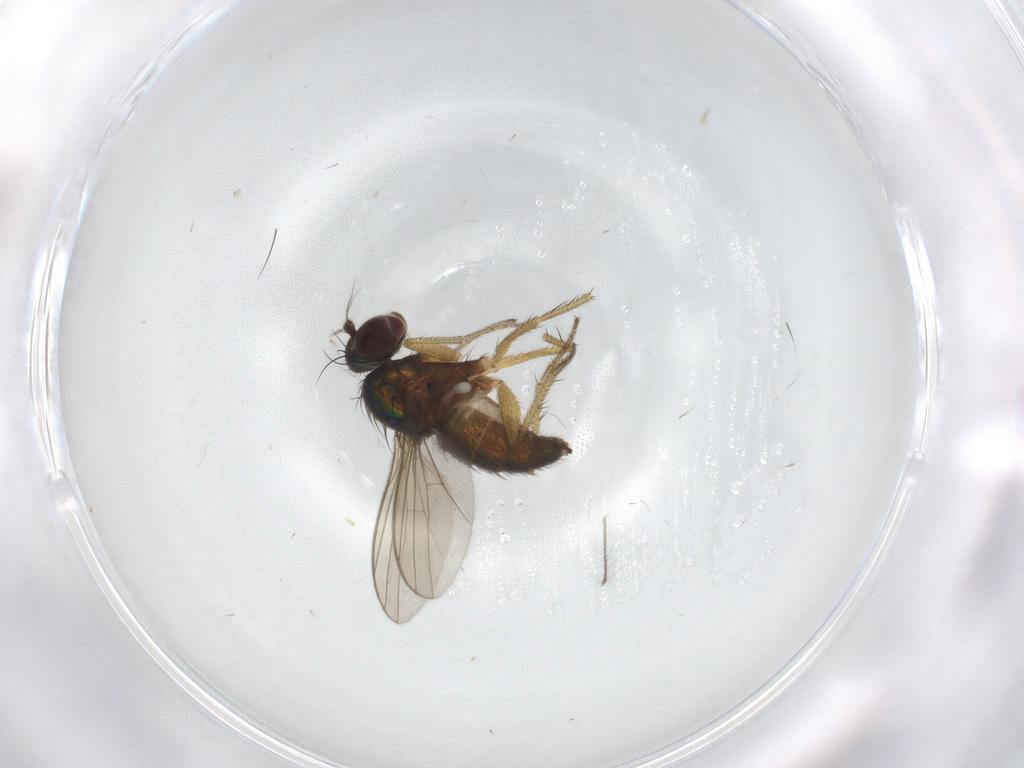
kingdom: Animalia
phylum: Arthropoda
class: Insecta
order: Diptera
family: Dolichopodidae
